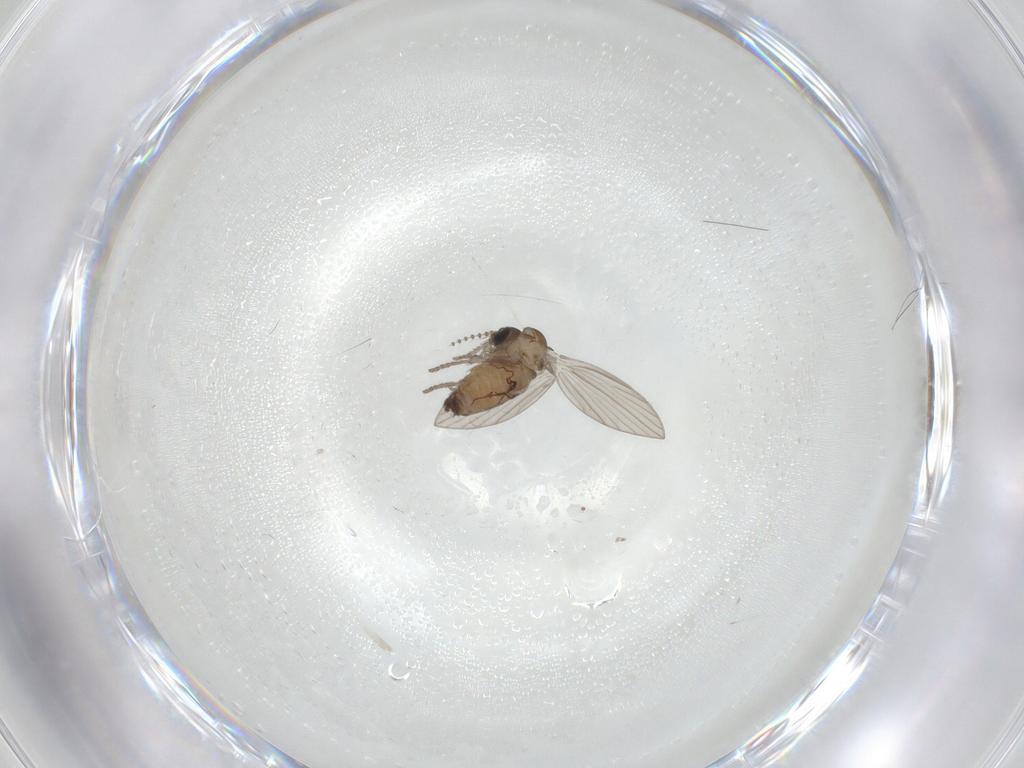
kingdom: Animalia
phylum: Arthropoda
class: Insecta
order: Diptera
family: Psychodidae
